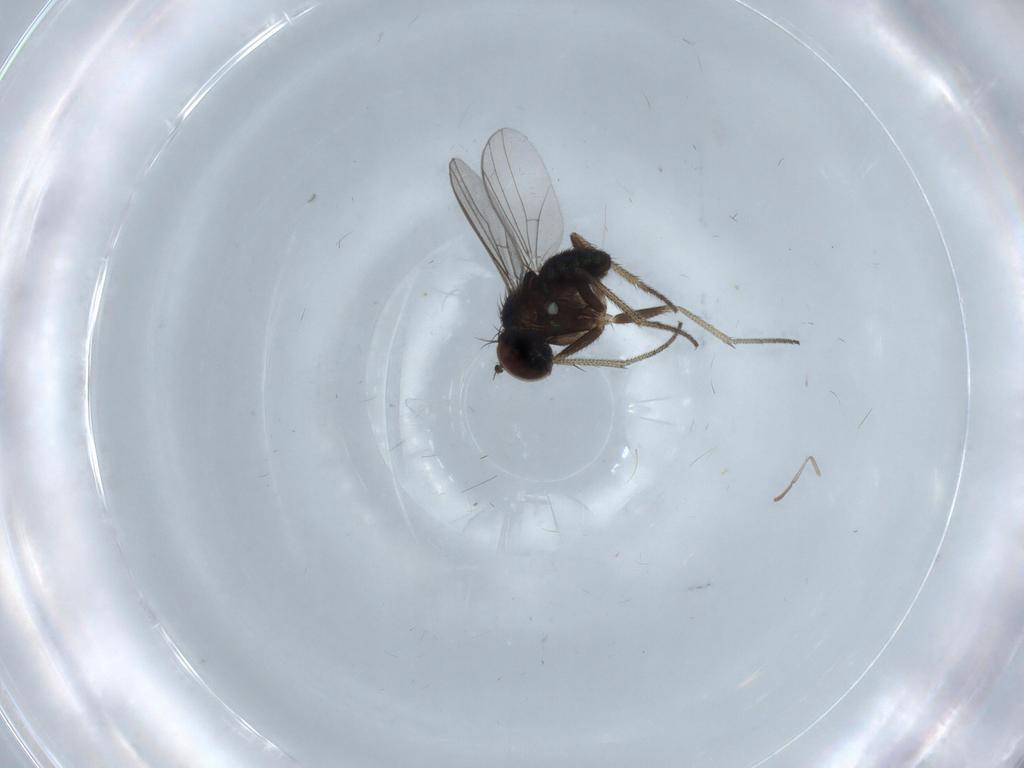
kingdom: Animalia
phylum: Arthropoda
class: Insecta
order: Diptera
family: Psychodidae
